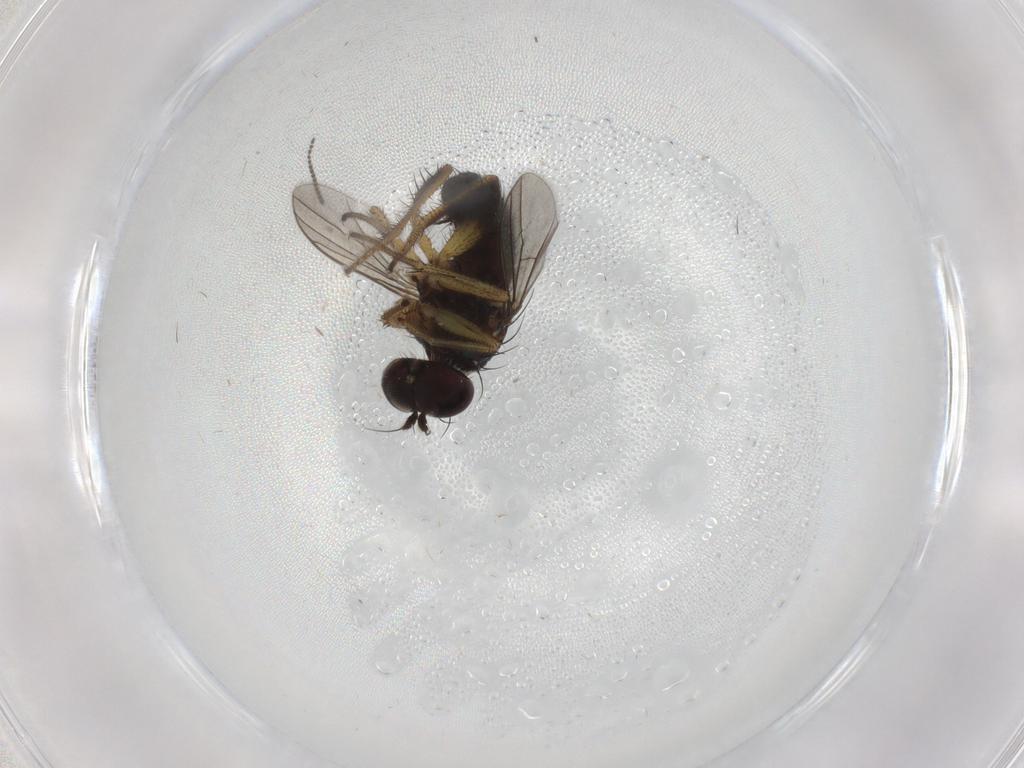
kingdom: Animalia
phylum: Arthropoda
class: Insecta
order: Diptera
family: Dolichopodidae
